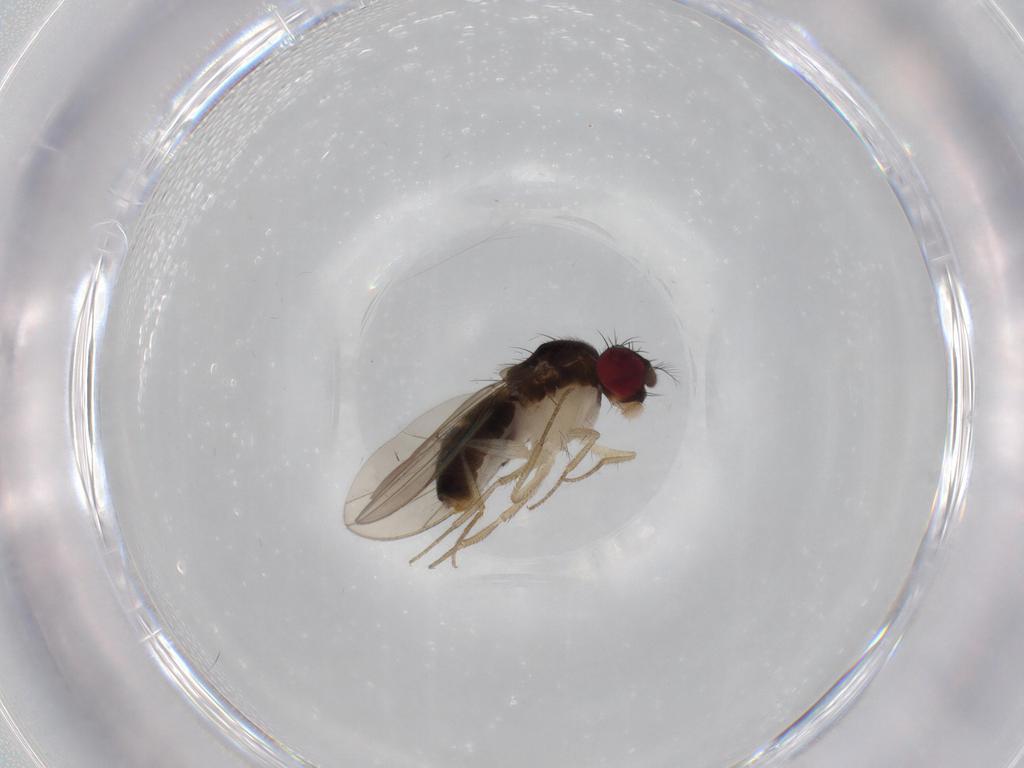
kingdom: Animalia
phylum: Arthropoda
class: Insecta
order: Diptera
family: Drosophilidae
